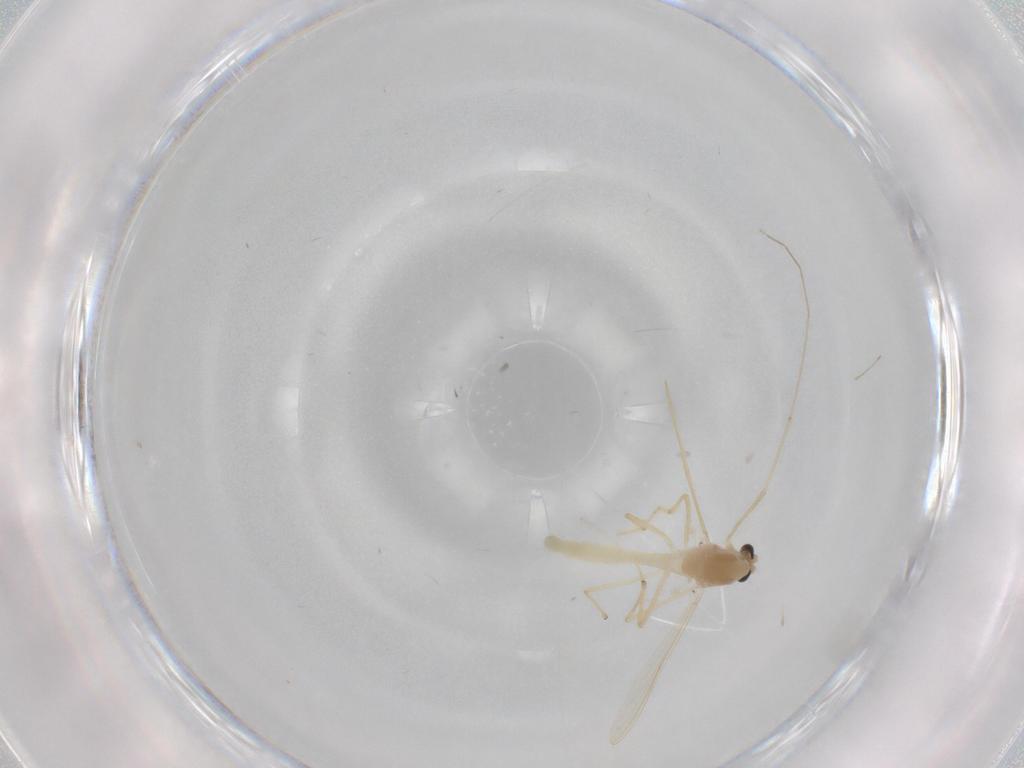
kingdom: Animalia
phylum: Arthropoda
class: Insecta
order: Diptera
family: Chironomidae
